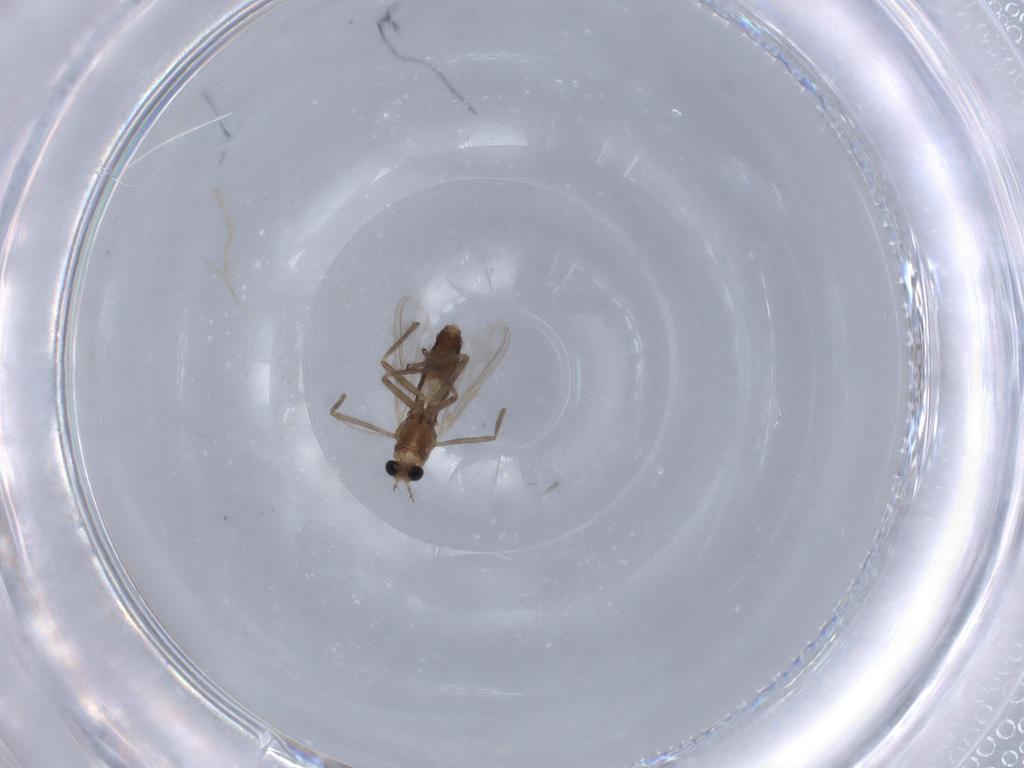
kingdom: Animalia
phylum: Arthropoda
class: Insecta
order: Diptera
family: Chironomidae
